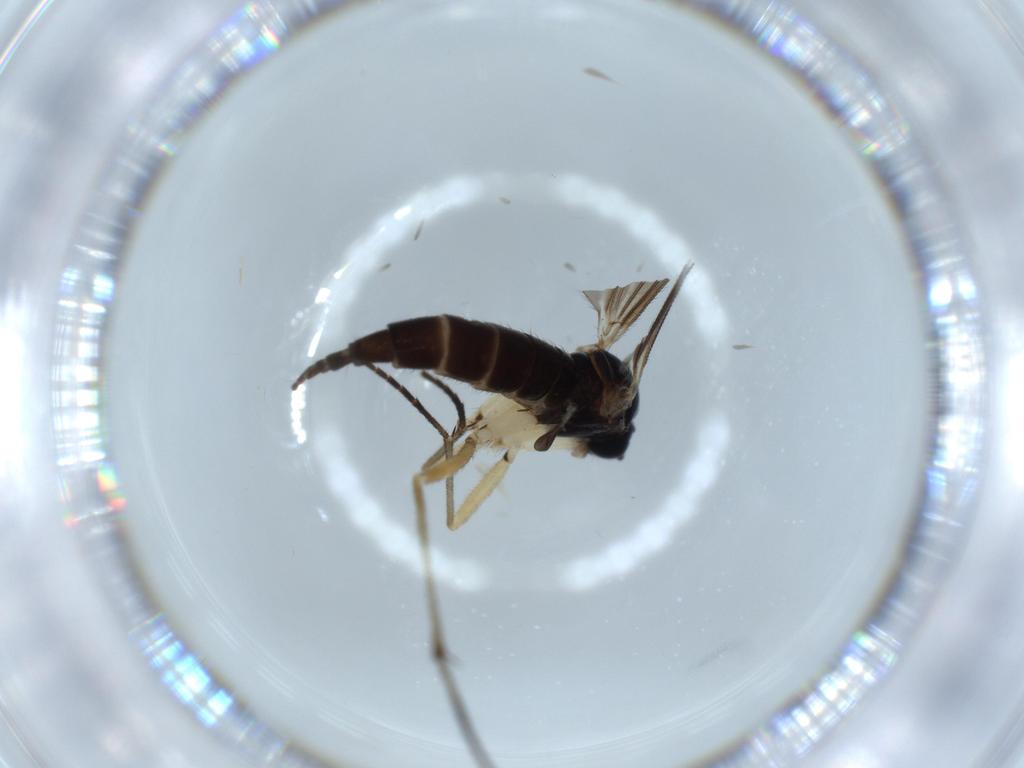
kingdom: Animalia
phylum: Arthropoda
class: Insecta
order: Diptera
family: Sciaridae
